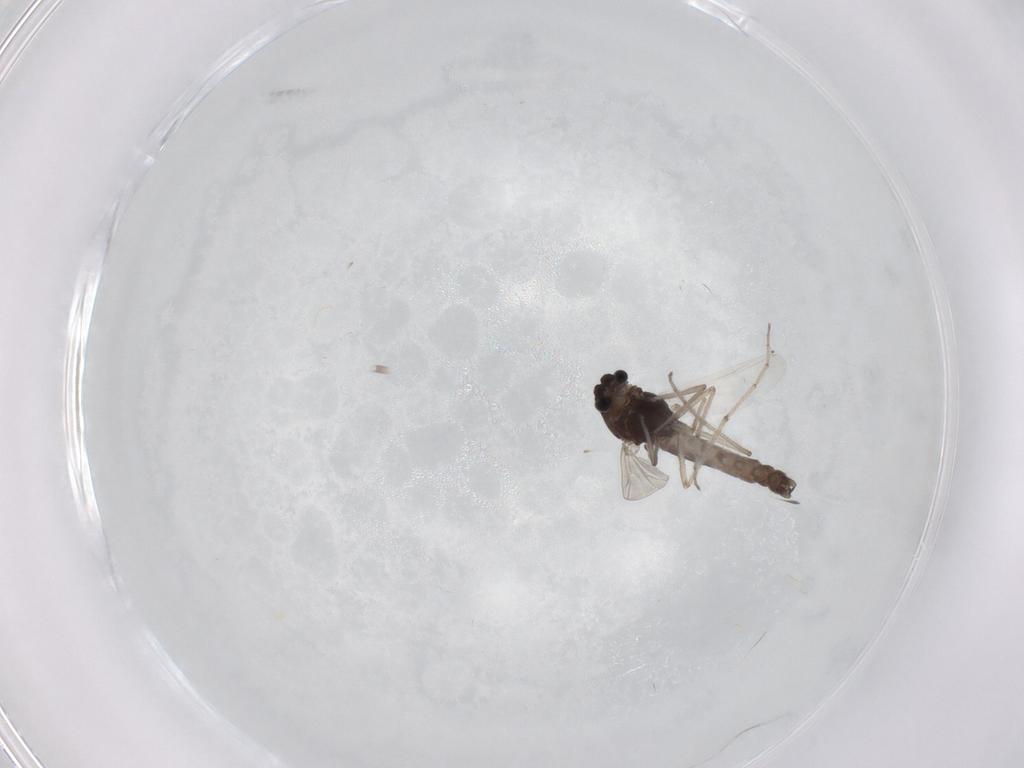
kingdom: Animalia
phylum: Arthropoda
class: Insecta
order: Diptera
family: Chironomidae
